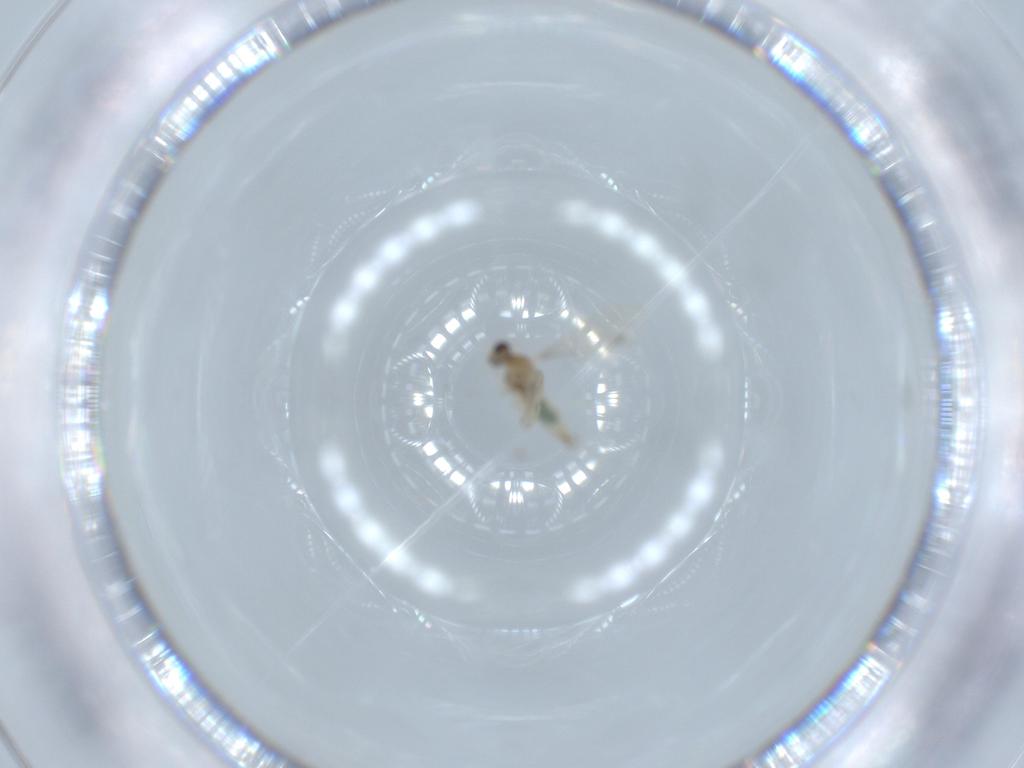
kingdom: Animalia
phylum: Arthropoda
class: Insecta
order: Diptera
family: Cecidomyiidae
